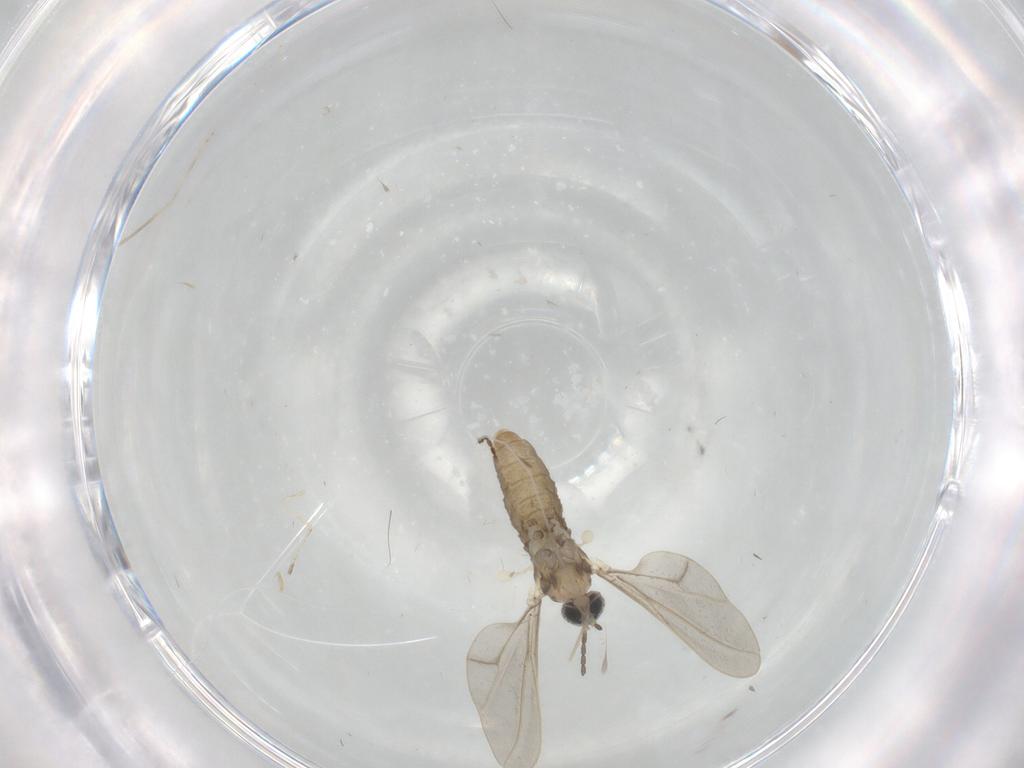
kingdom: Animalia
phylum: Arthropoda
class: Insecta
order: Diptera
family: Cecidomyiidae
